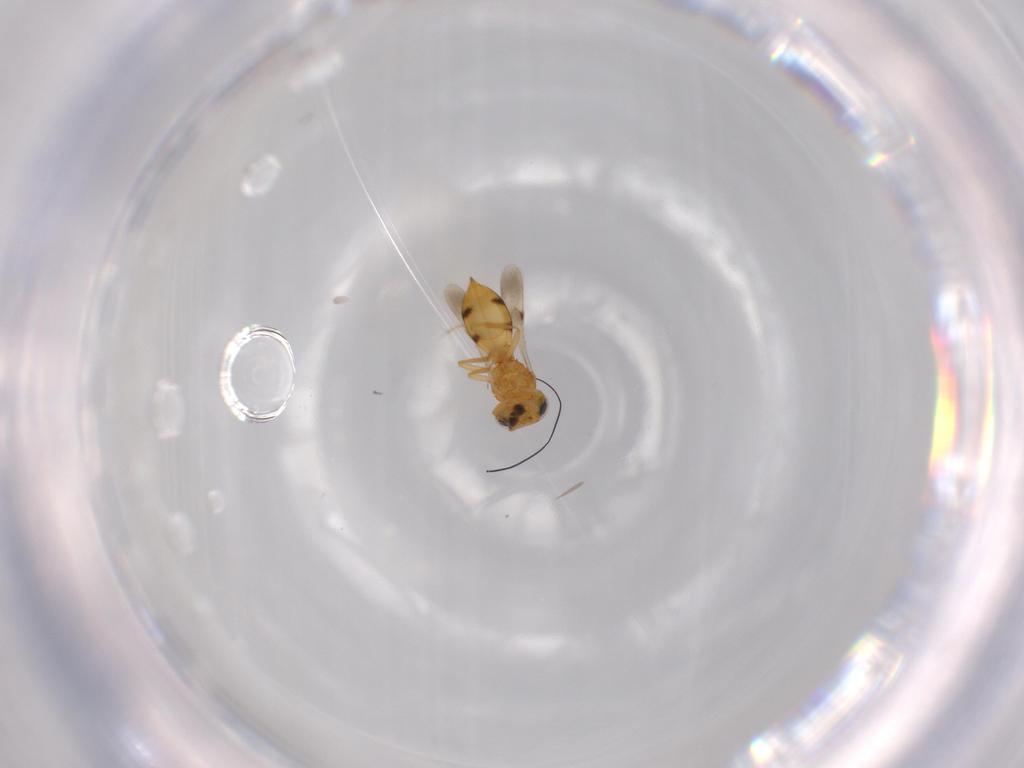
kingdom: Animalia
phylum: Arthropoda
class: Insecta
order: Hymenoptera
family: Scelionidae
